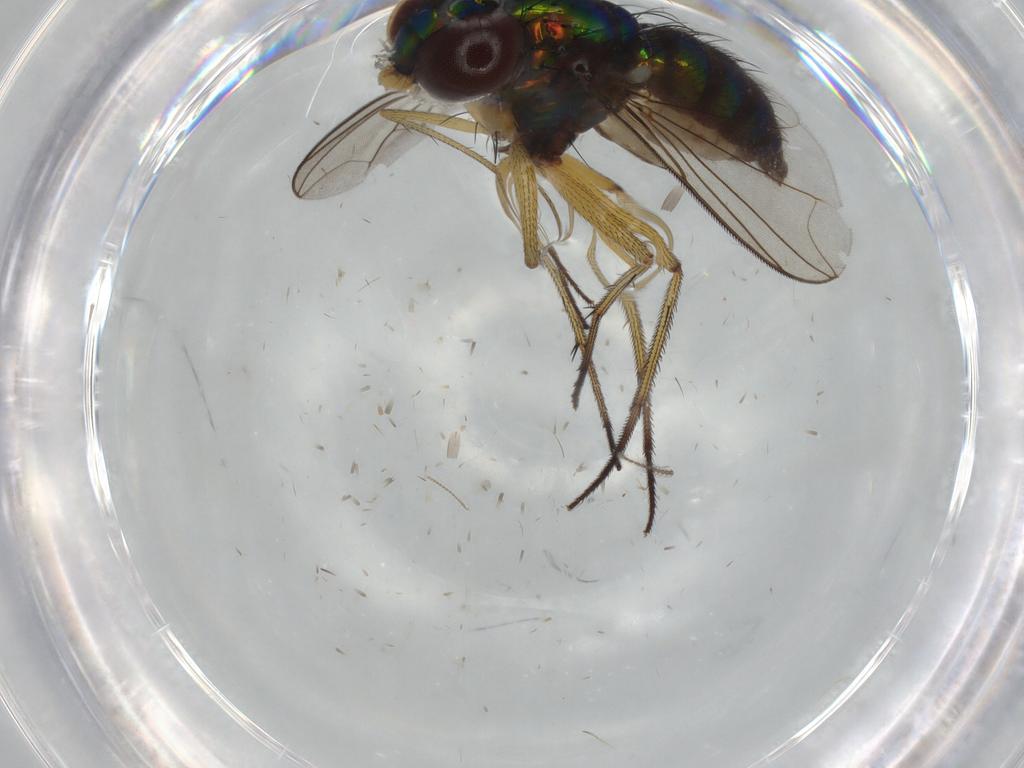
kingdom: Animalia
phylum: Arthropoda
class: Insecta
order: Diptera
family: Dolichopodidae
